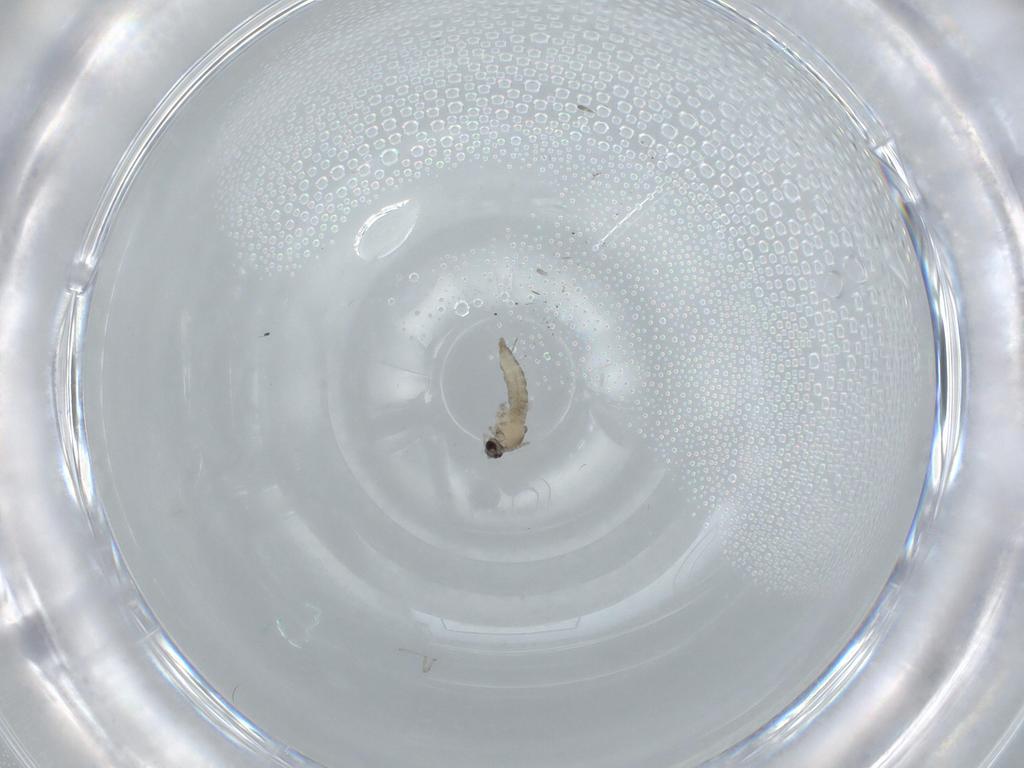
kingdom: Animalia
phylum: Arthropoda
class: Insecta
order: Diptera
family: Cecidomyiidae
